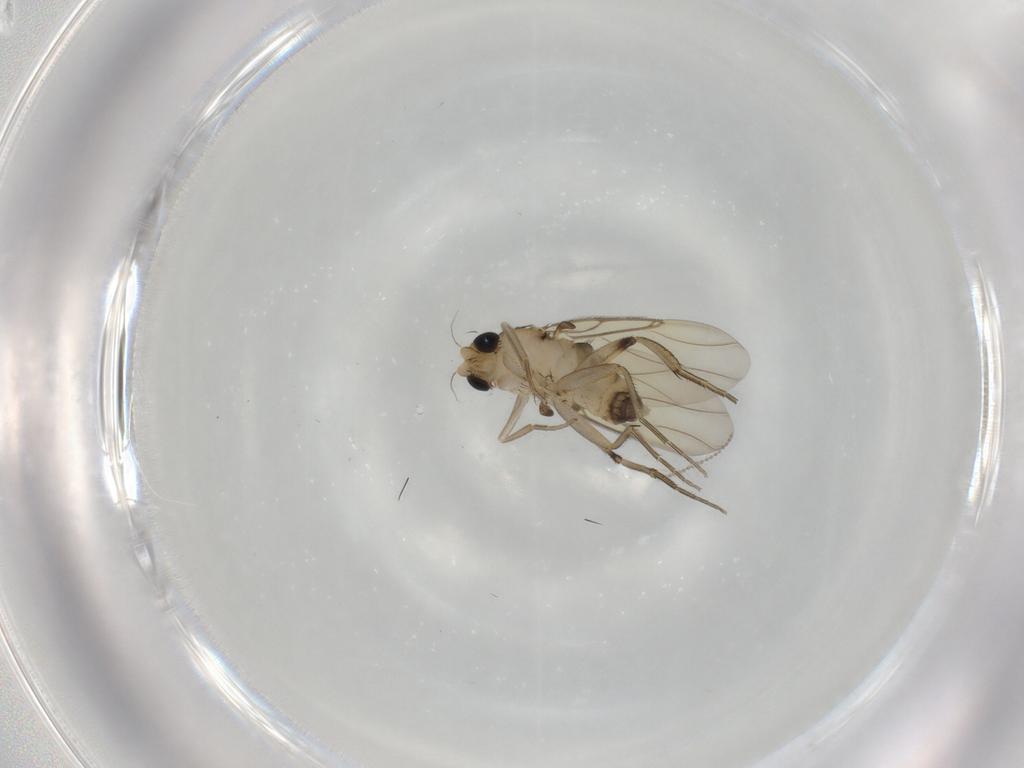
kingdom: Animalia
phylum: Arthropoda
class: Insecta
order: Diptera
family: Phoridae
